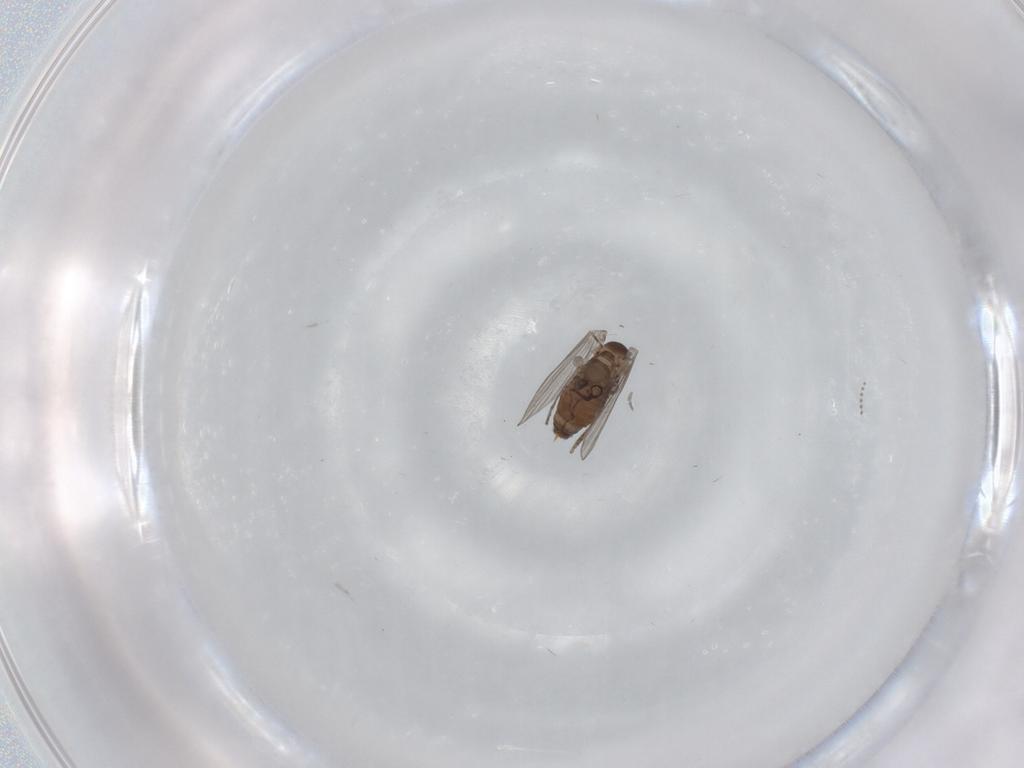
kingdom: Animalia
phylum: Arthropoda
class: Insecta
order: Diptera
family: Psychodidae
